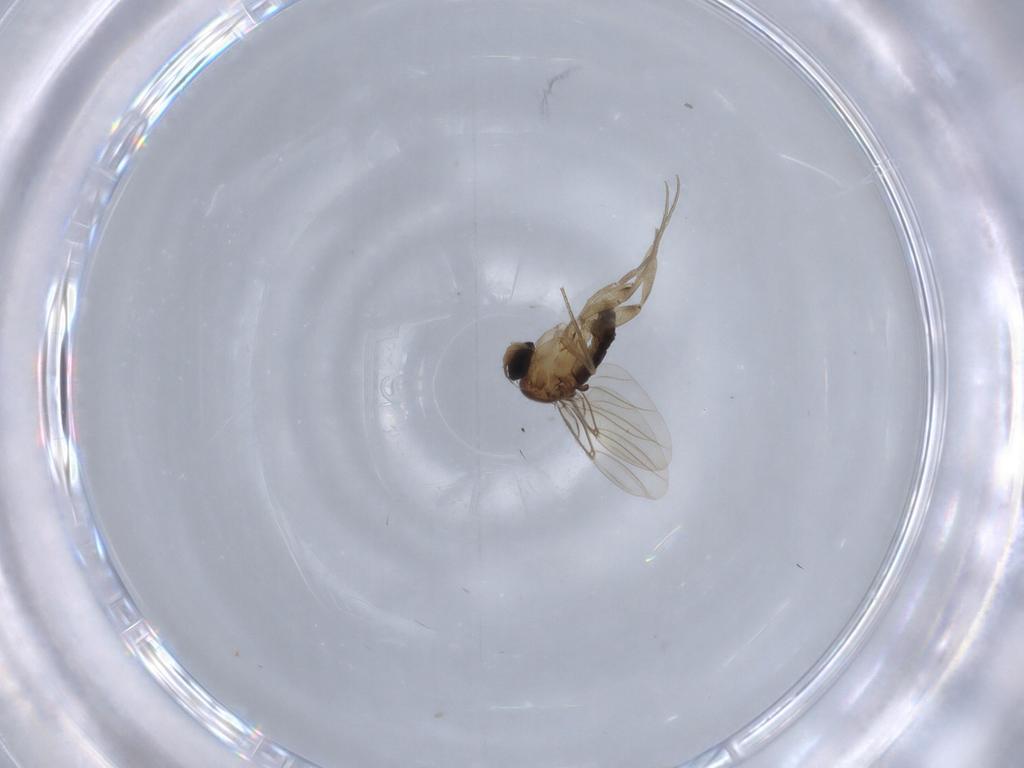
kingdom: Animalia
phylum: Arthropoda
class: Insecta
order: Diptera
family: Phoridae
